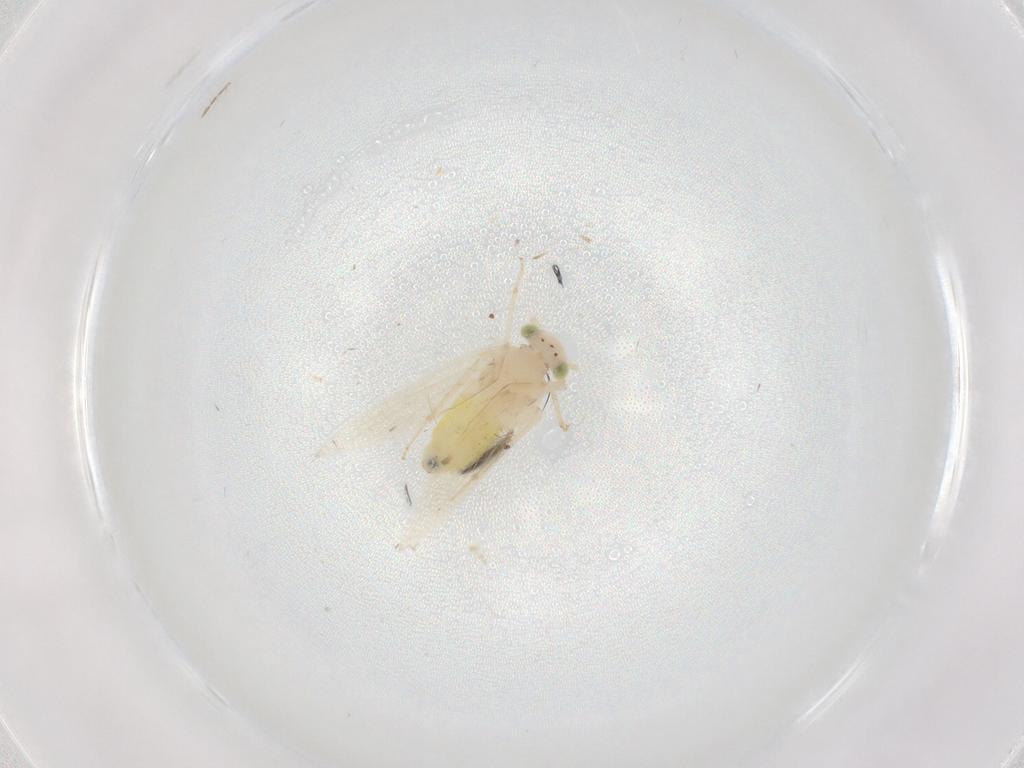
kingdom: Animalia
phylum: Arthropoda
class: Insecta
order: Psocodea
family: Lepidopsocidae
